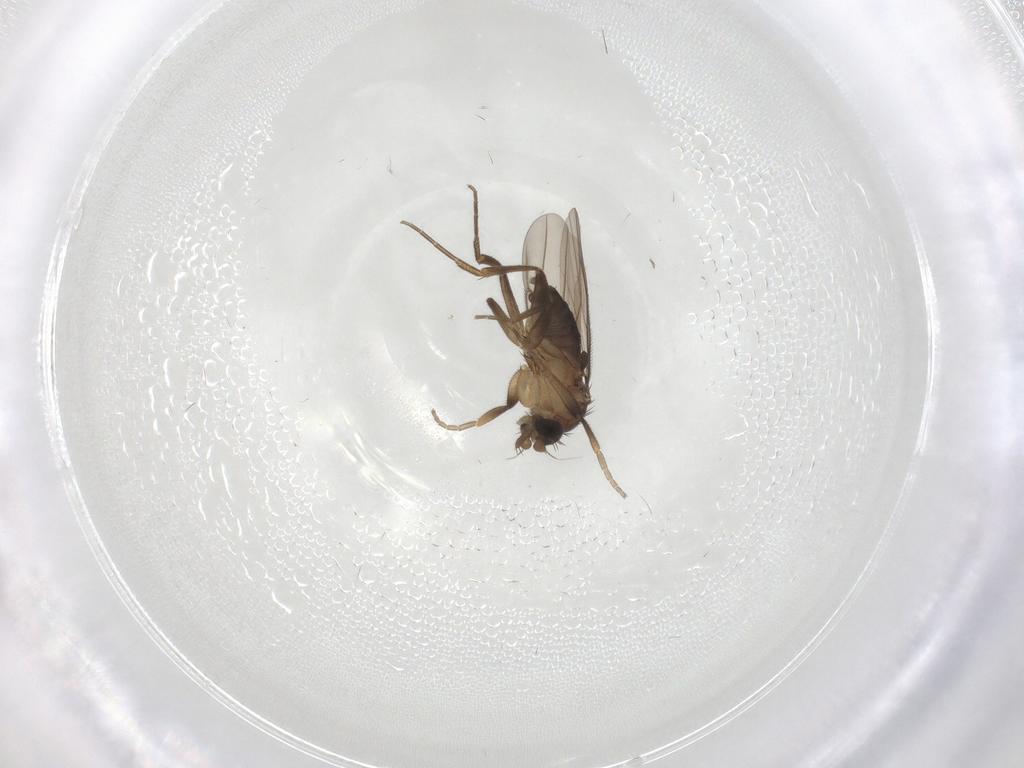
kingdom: Animalia
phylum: Arthropoda
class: Insecta
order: Diptera
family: Phoridae
